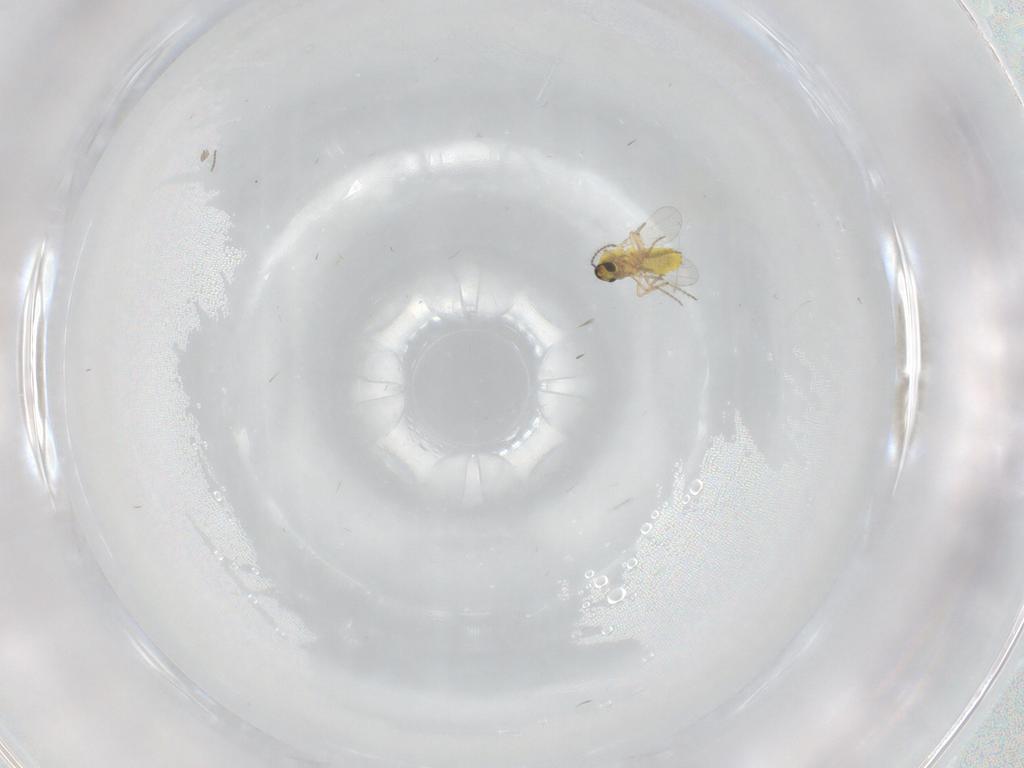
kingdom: Animalia
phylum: Arthropoda
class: Insecta
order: Diptera
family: Ceratopogonidae
